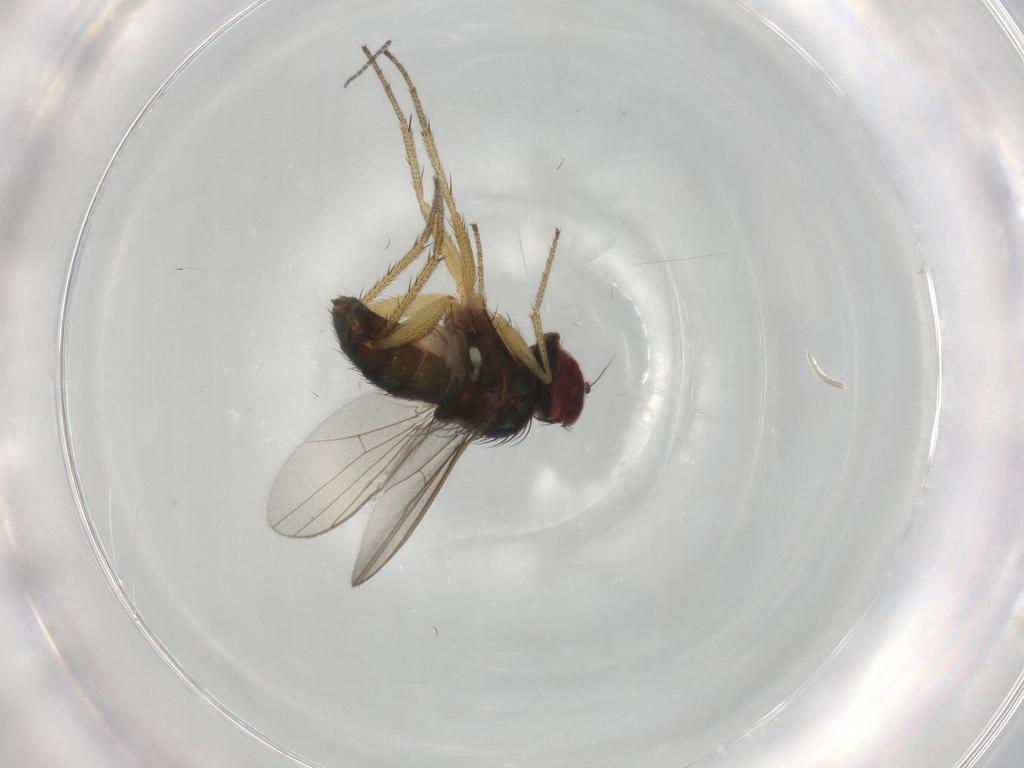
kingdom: Animalia
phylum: Arthropoda
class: Insecta
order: Diptera
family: Dolichopodidae
